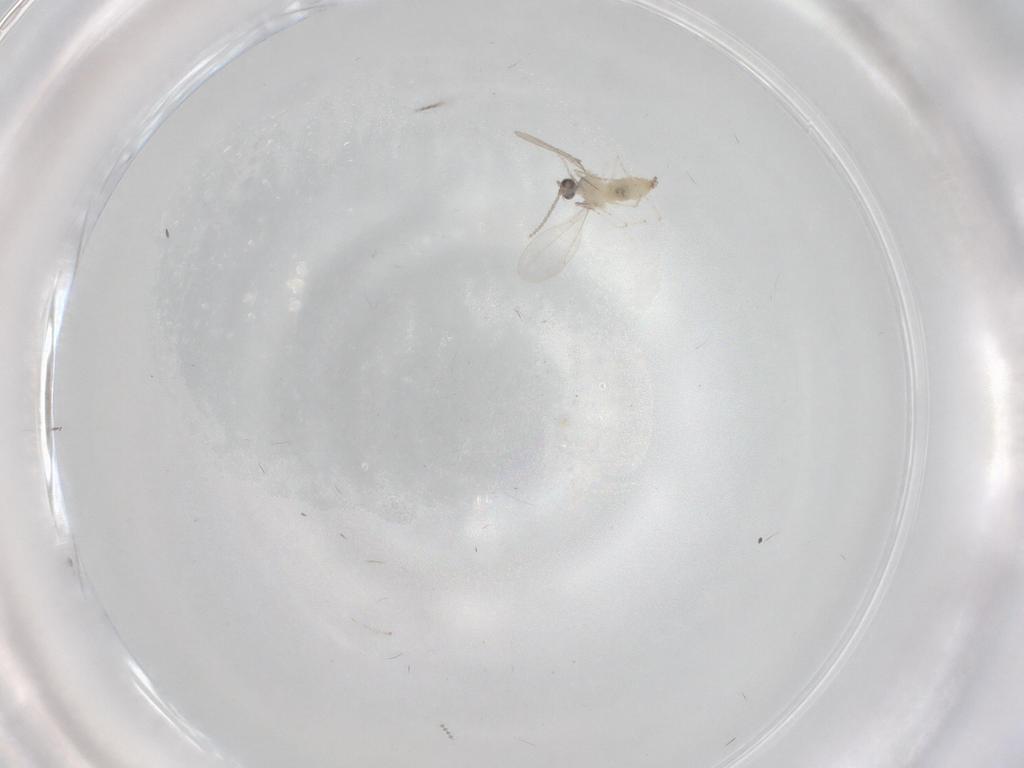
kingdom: Animalia
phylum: Arthropoda
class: Insecta
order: Diptera
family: Cecidomyiidae
